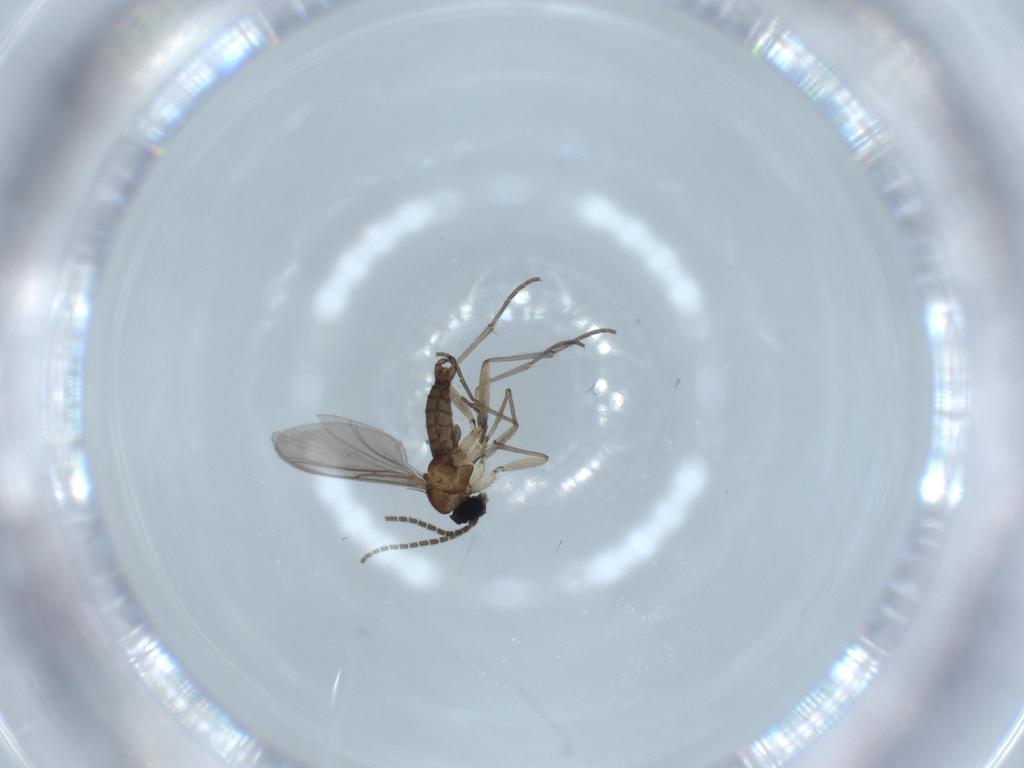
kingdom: Animalia
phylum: Arthropoda
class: Insecta
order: Diptera
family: Sciaridae
